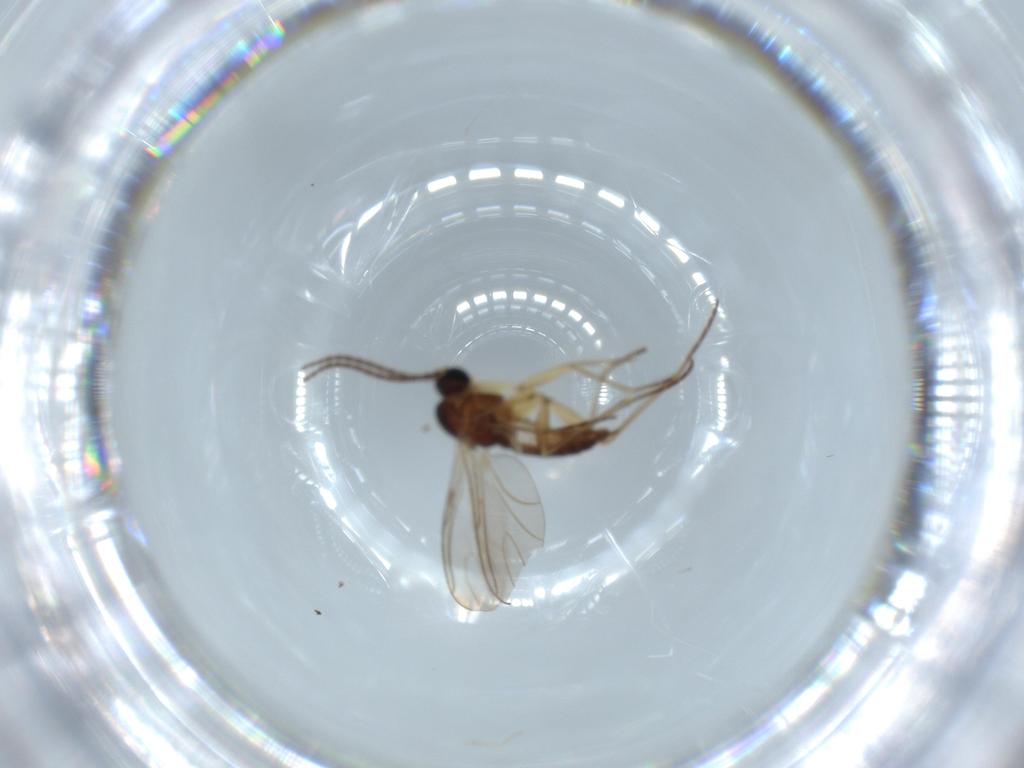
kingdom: Animalia
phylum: Arthropoda
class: Insecta
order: Diptera
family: Sciaridae
